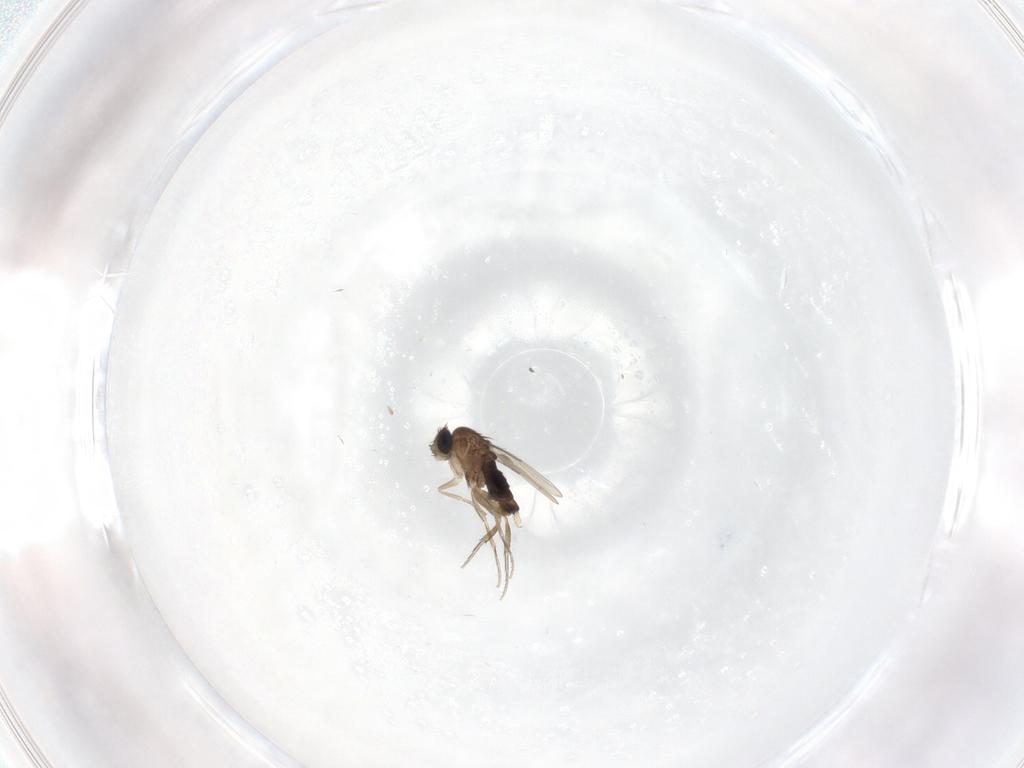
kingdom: Animalia
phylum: Arthropoda
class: Insecta
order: Diptera
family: Phoridae
